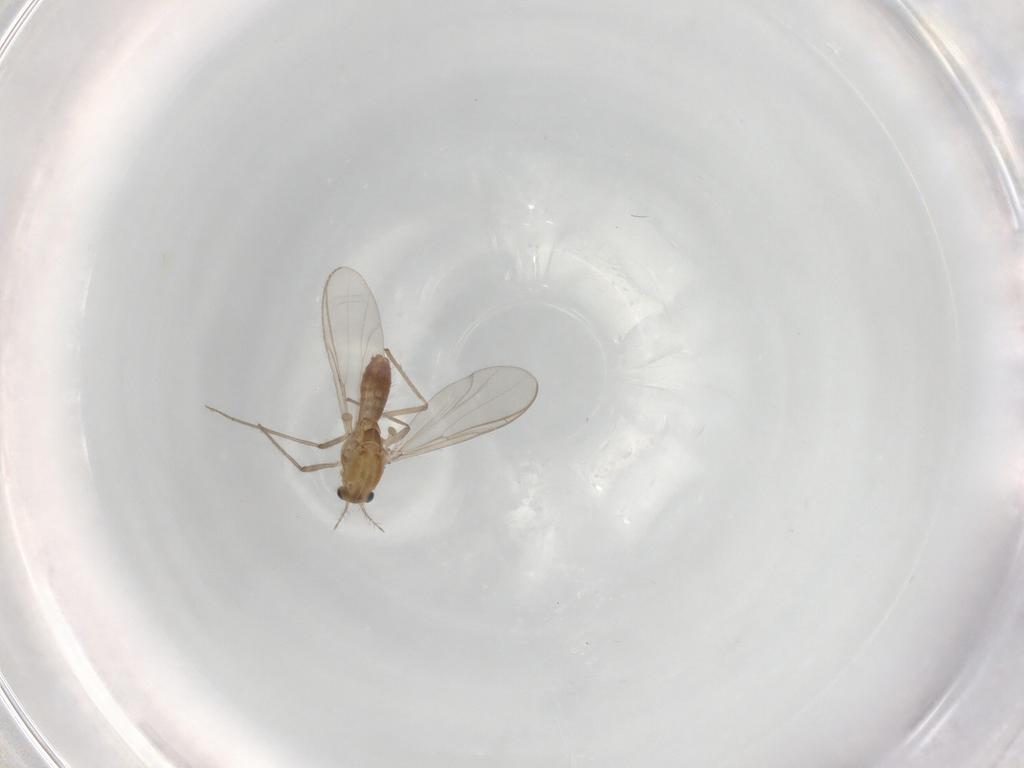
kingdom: Animalia
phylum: Arthropoda
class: Insecta
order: Diptera
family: Chironomidae
